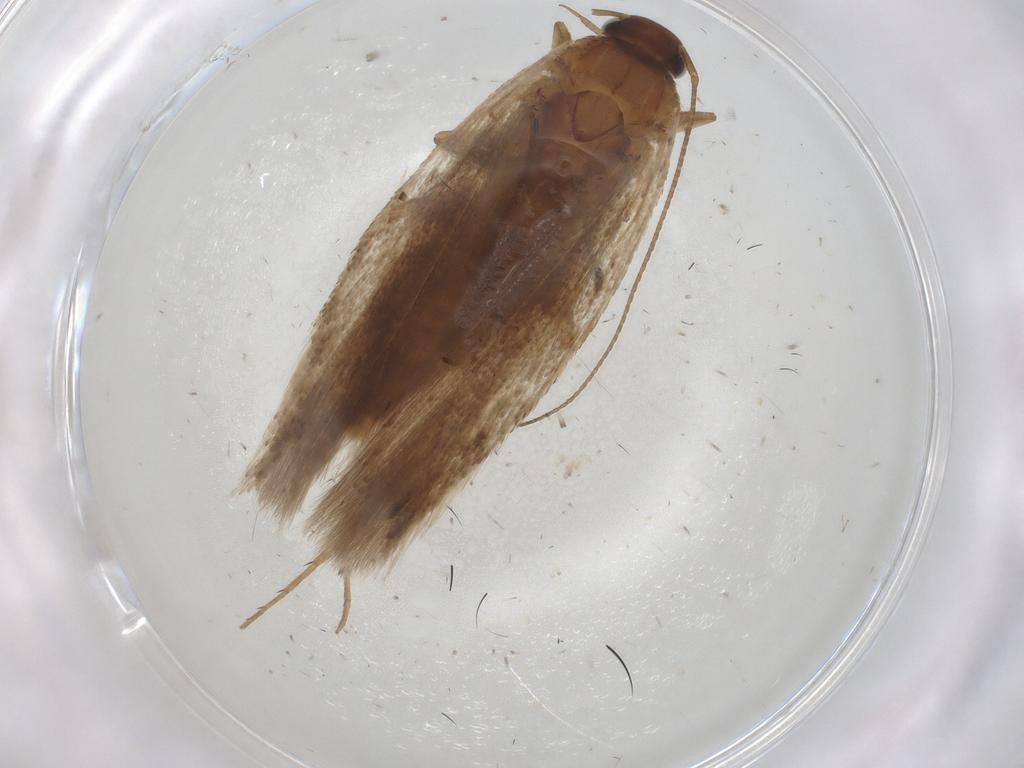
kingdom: Animalia
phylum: Arthropoda
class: Insecta
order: Lepidoptera
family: Gelechiidae
